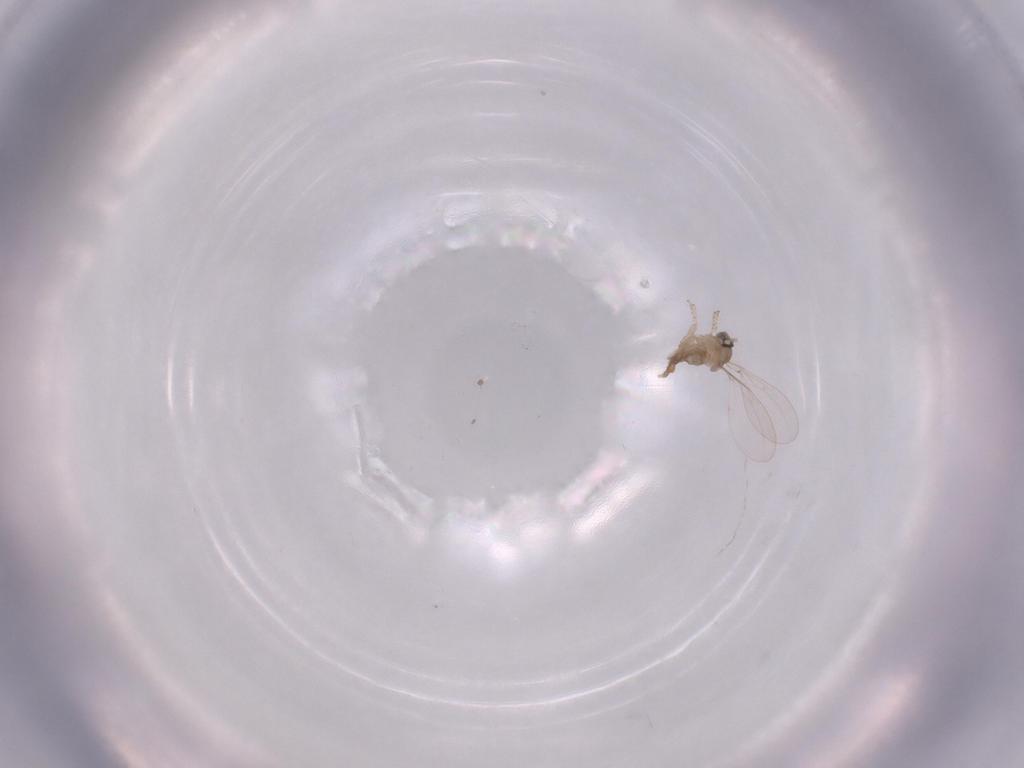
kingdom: Animalia
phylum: Arthropoda
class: Insecta
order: Diptera
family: Cecidomyiidae
